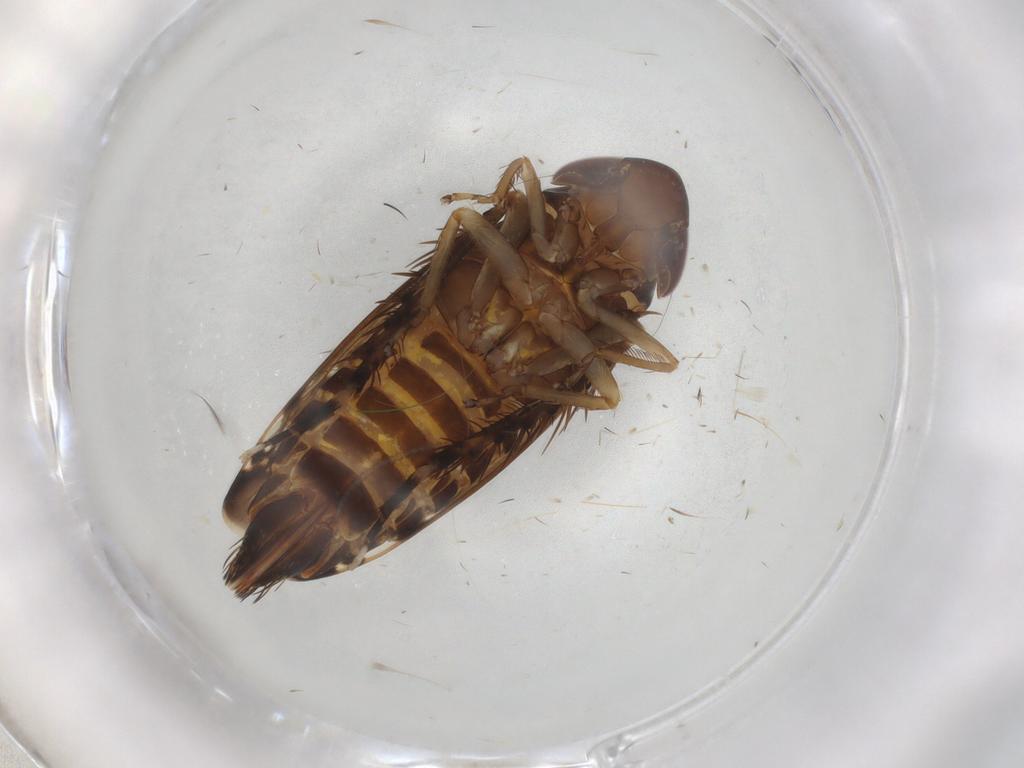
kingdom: Animalia
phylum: Arthropoda
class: Insecta
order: Hemiptera
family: Cicadellidae
